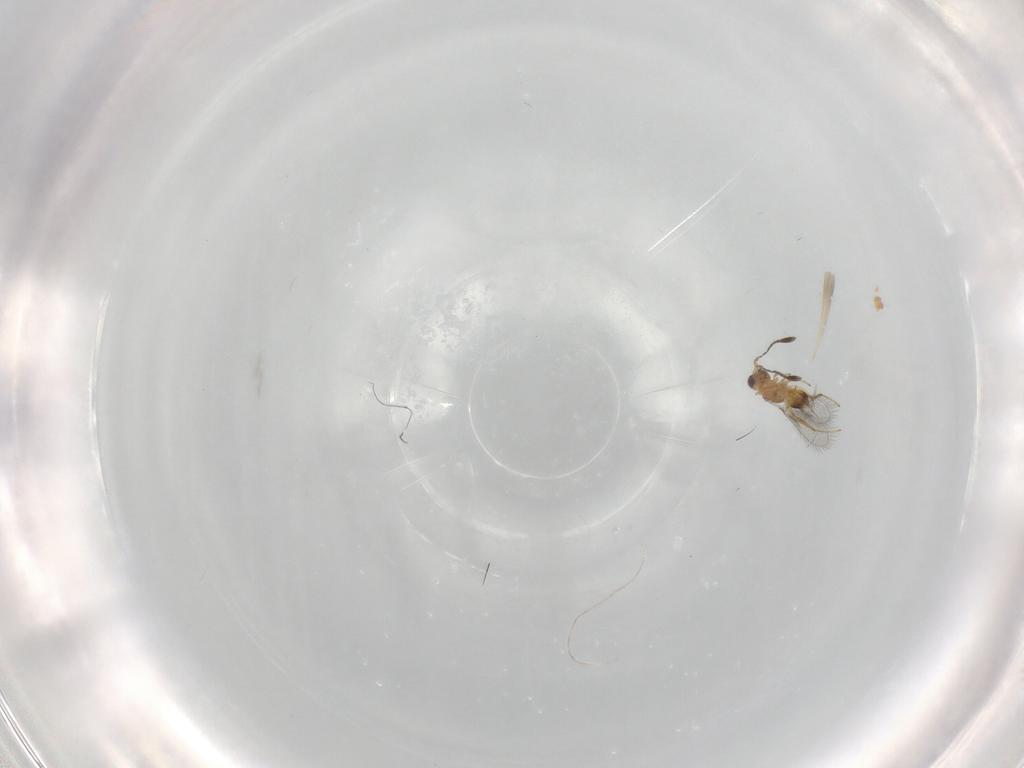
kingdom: Animalia
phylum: Arthropoda
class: Insecta
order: Hymenoptera
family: Mymaridae
